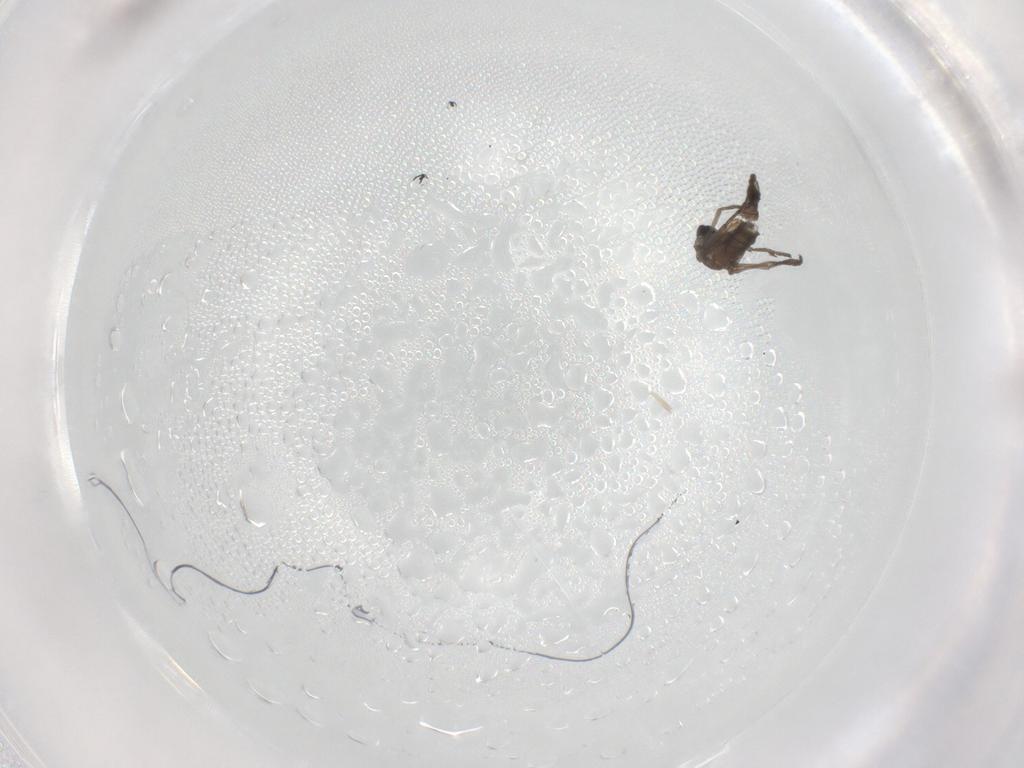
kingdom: Animalia
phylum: Arthropoda
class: Insecta
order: Diptera
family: Sciaridae
